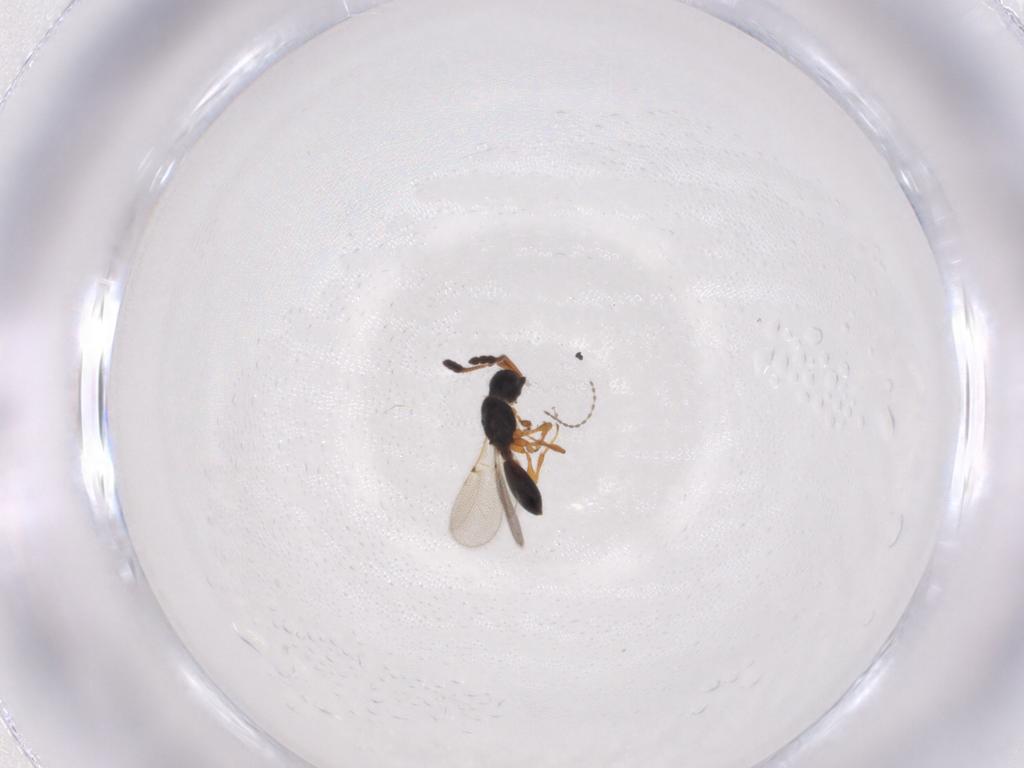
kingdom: Animalia
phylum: Arthropoda
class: Insecta
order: Hymenoptera
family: Diapriidae
